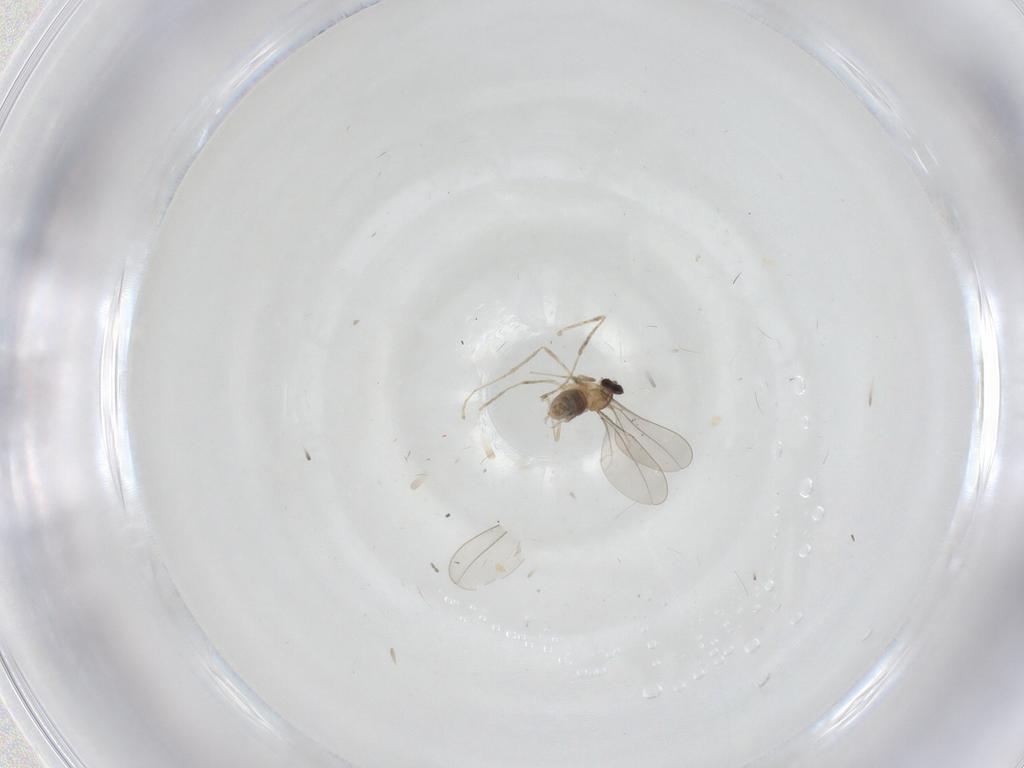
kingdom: Animalia
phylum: Arthropoda
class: Insecta
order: Diptera
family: Cecidomyiidae
